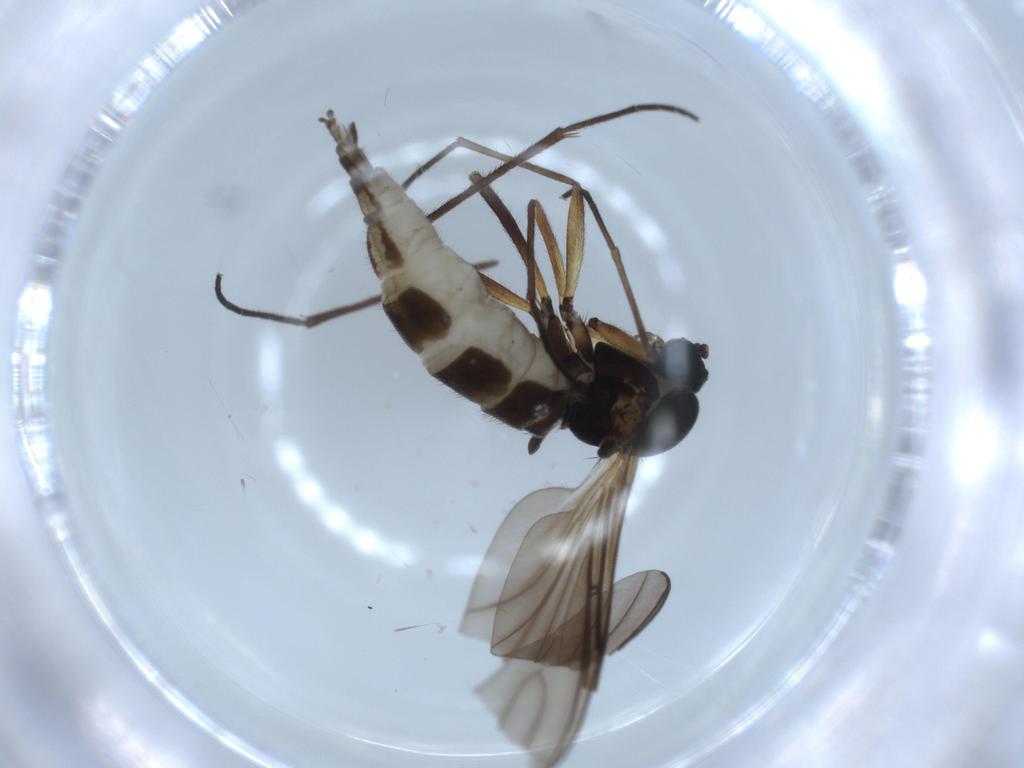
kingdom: Animalia
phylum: Arthropoda
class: Insecta
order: Diptera
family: Sciaridae
